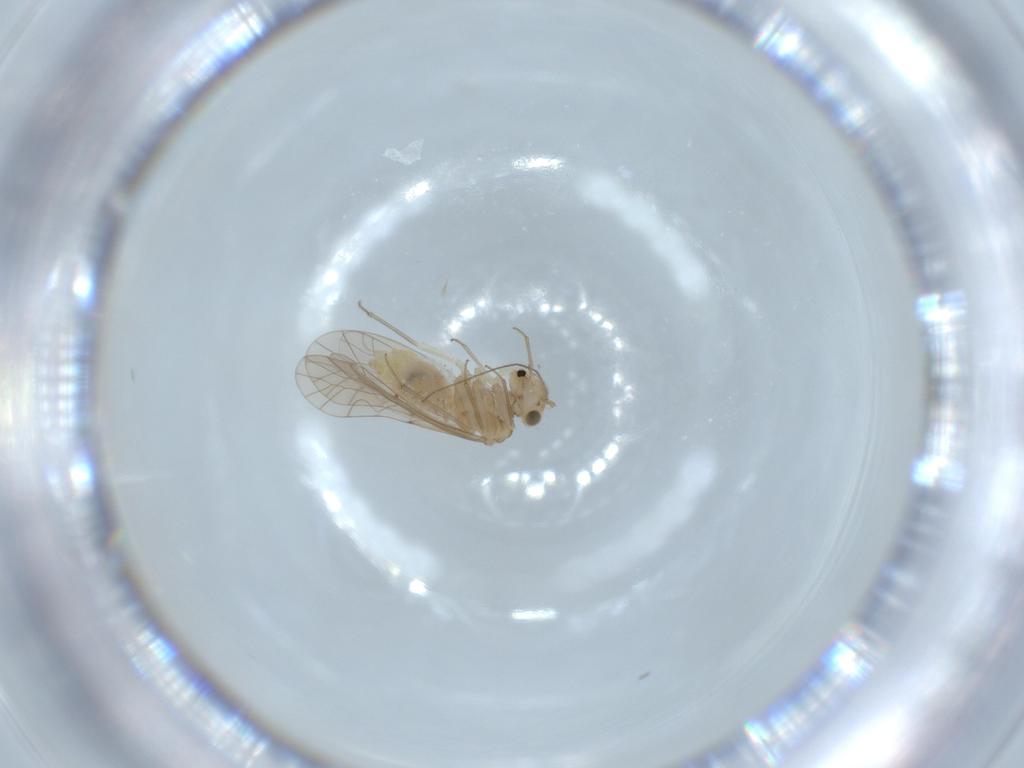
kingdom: Animalia
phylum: Arthropoda
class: Insecta
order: Psocodea
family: Lachesillidae
